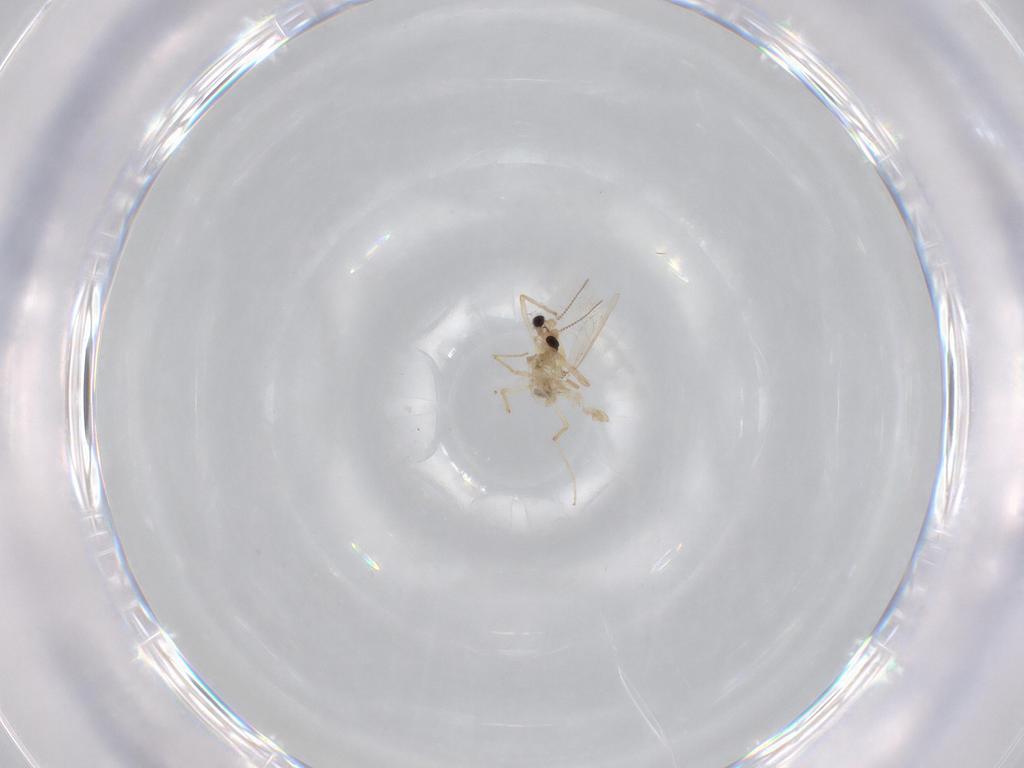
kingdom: Animalia
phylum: Arthropoda
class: Insecta
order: Diptera
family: Chironomidae
